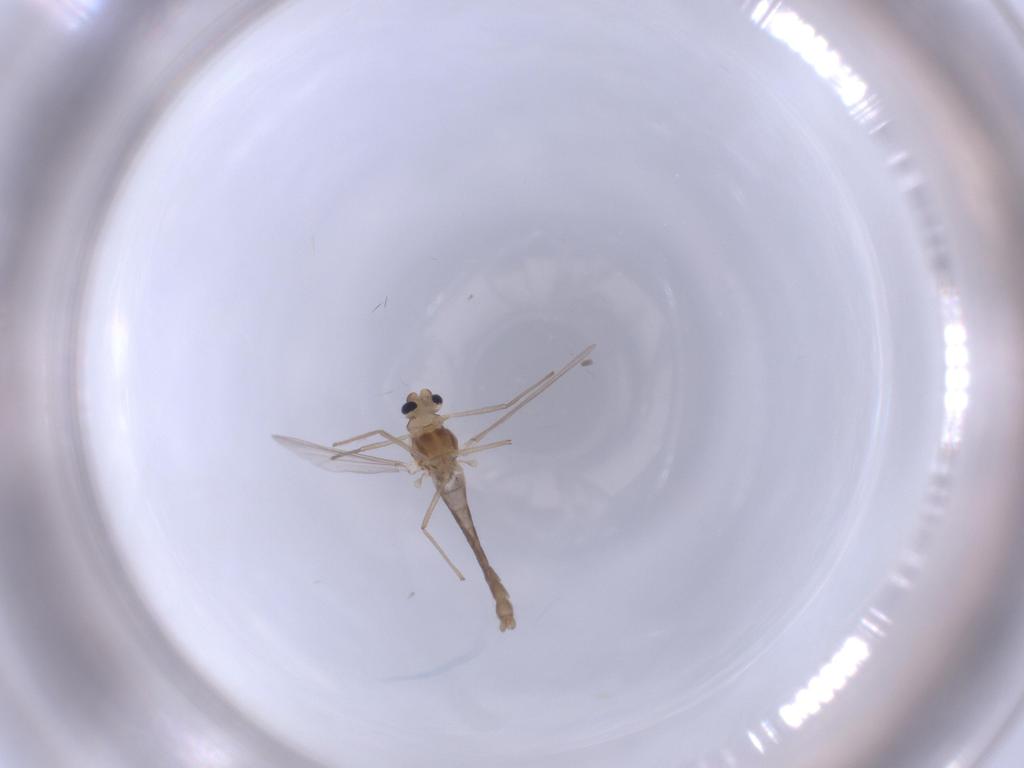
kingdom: Animalia
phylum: Arthropoda
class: Insecta
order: Diptera
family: Chironomidae
